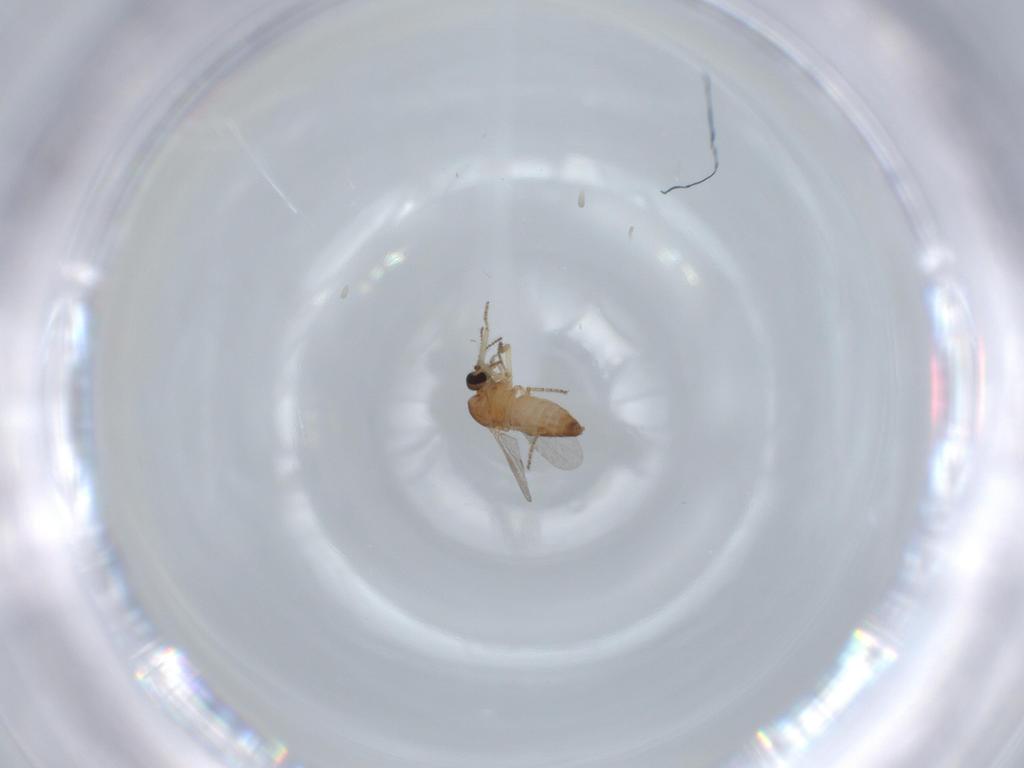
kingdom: Animalia
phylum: Arthropoda
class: Insecta
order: Diptera
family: Ceratopogonidae
